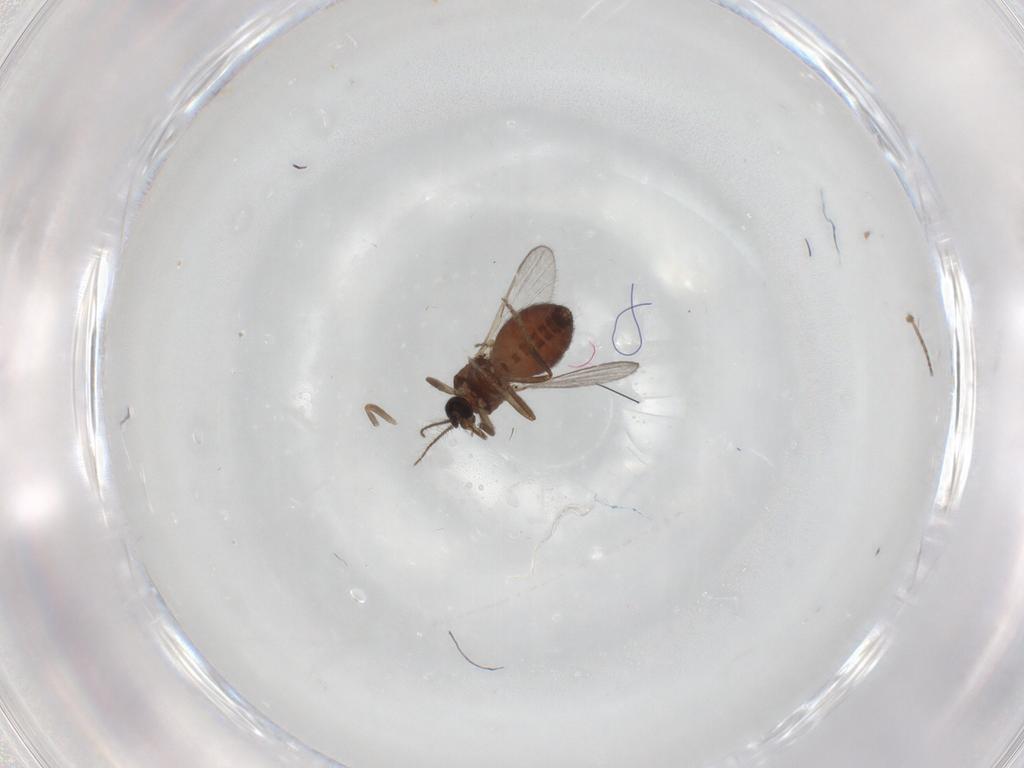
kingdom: Animalia
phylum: Arthropoda
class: Insecta
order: Diptera
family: Ceratopogonidae
